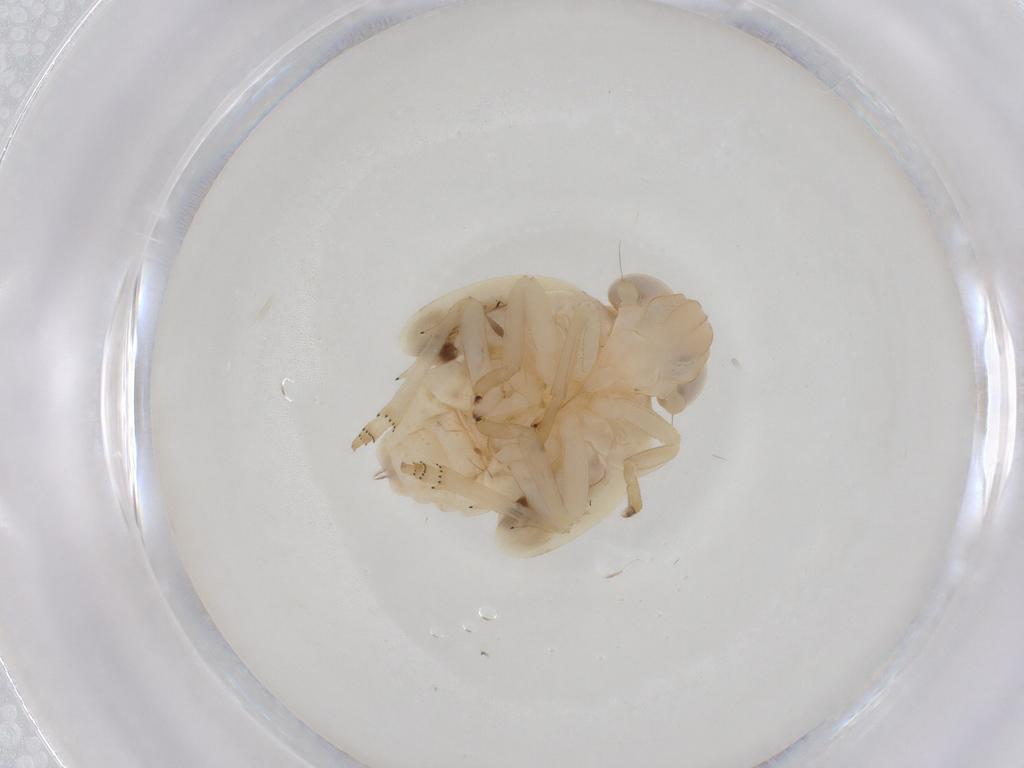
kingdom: Animalia
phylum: Arthropoda
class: Insecta
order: Hemiptera
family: Nogodinidae
